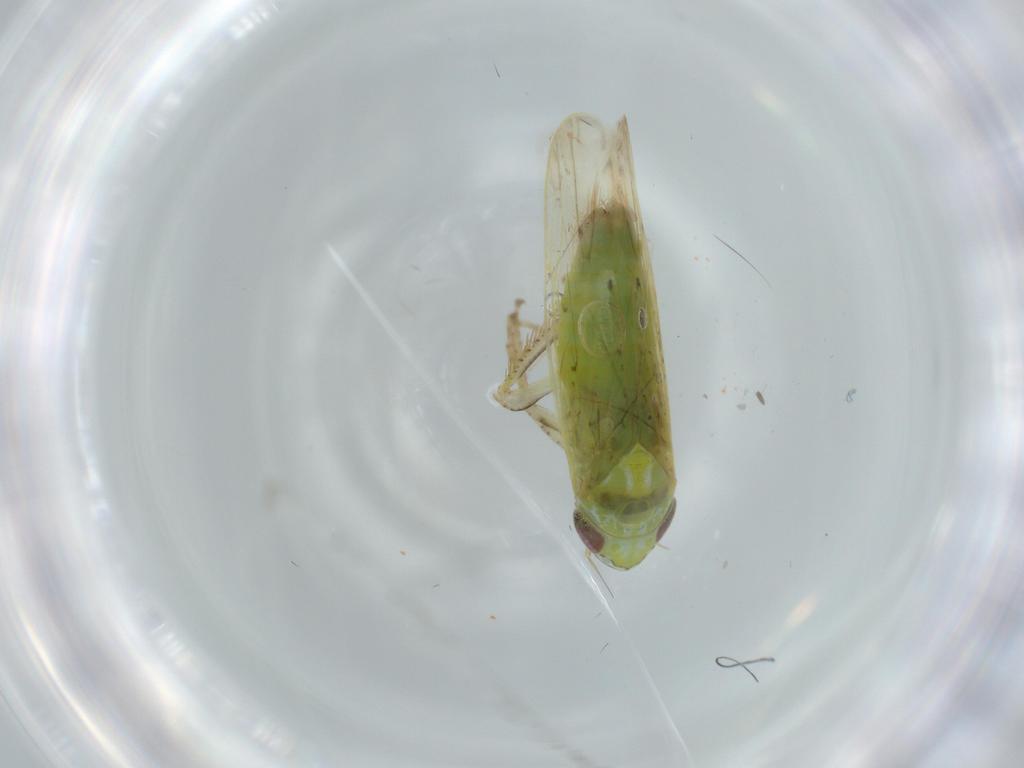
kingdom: Animalia
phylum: Arthropoda
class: Insecta
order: Hemiptera
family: Cicadellidae
